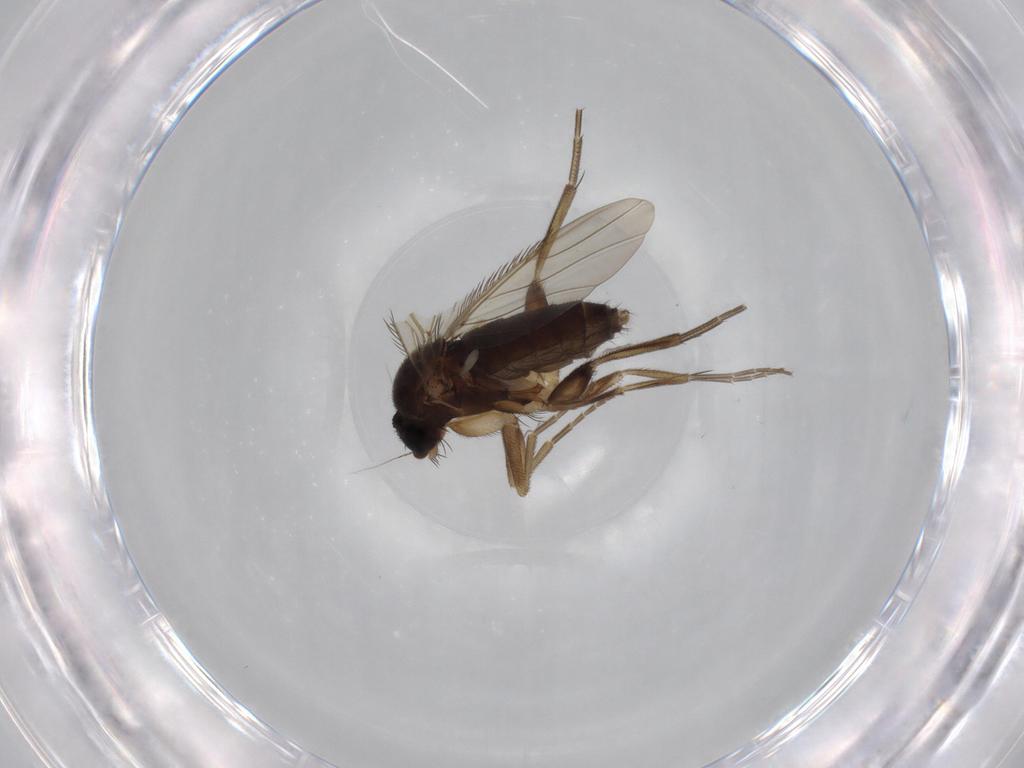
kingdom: Animalia
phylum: Arthropoda
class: Insecta
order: Diptera
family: Phoridae
